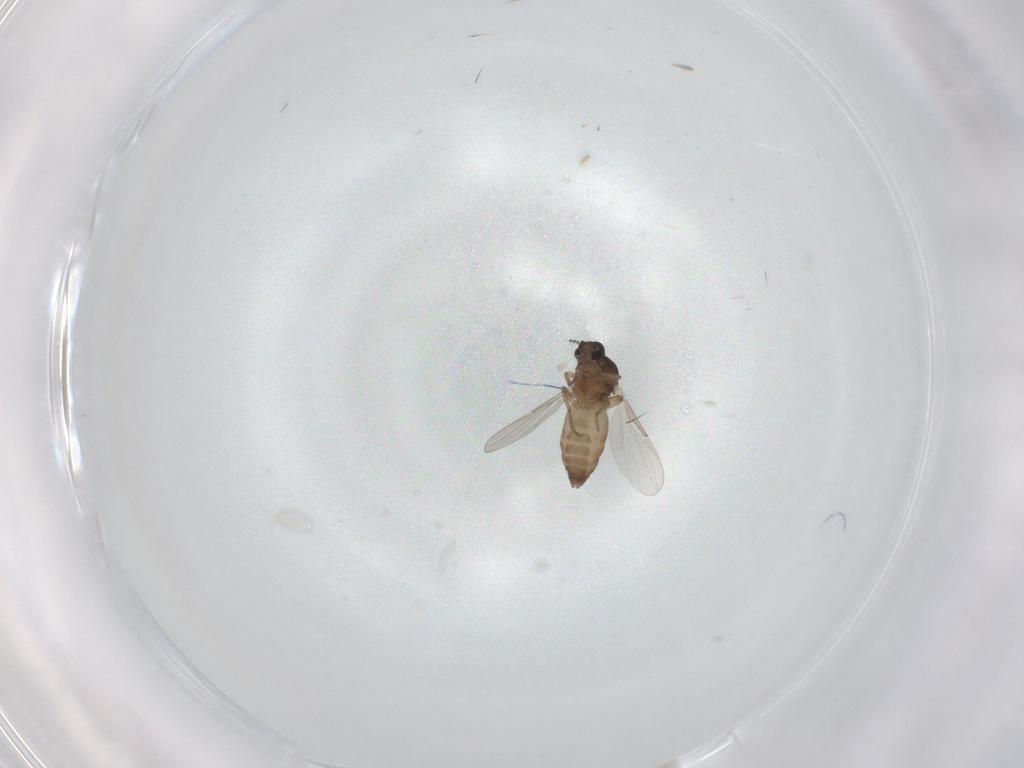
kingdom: Animalia
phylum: Arthropoda
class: Insecta
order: Diptera
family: Ceratopogonidae
